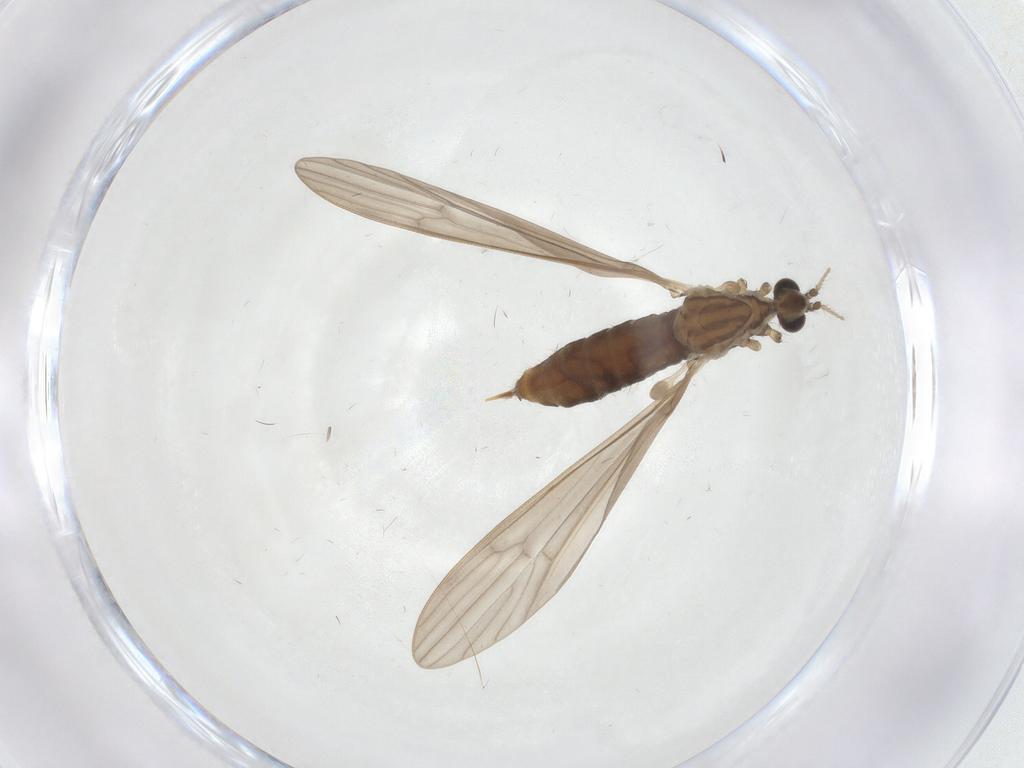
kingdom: Animalia
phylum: Arthropoda
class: Insecta
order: Diptera
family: Limoniidae
